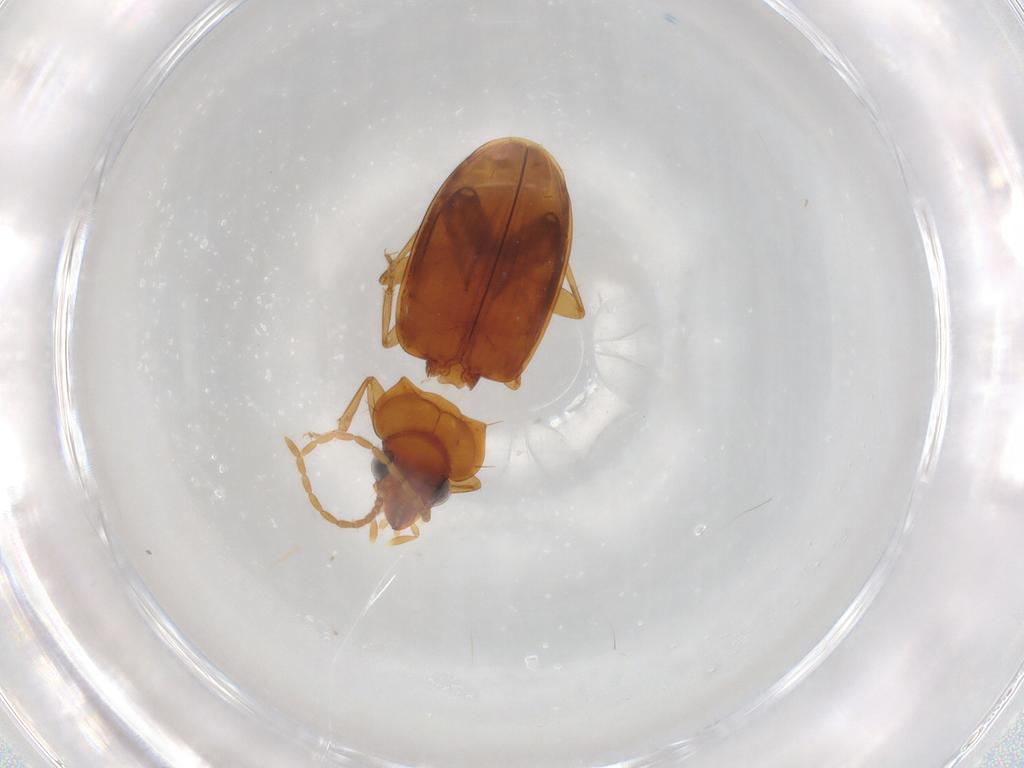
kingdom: Animalia
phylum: Arthropoda
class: Insecta
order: Coleoptera
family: Carabidae
